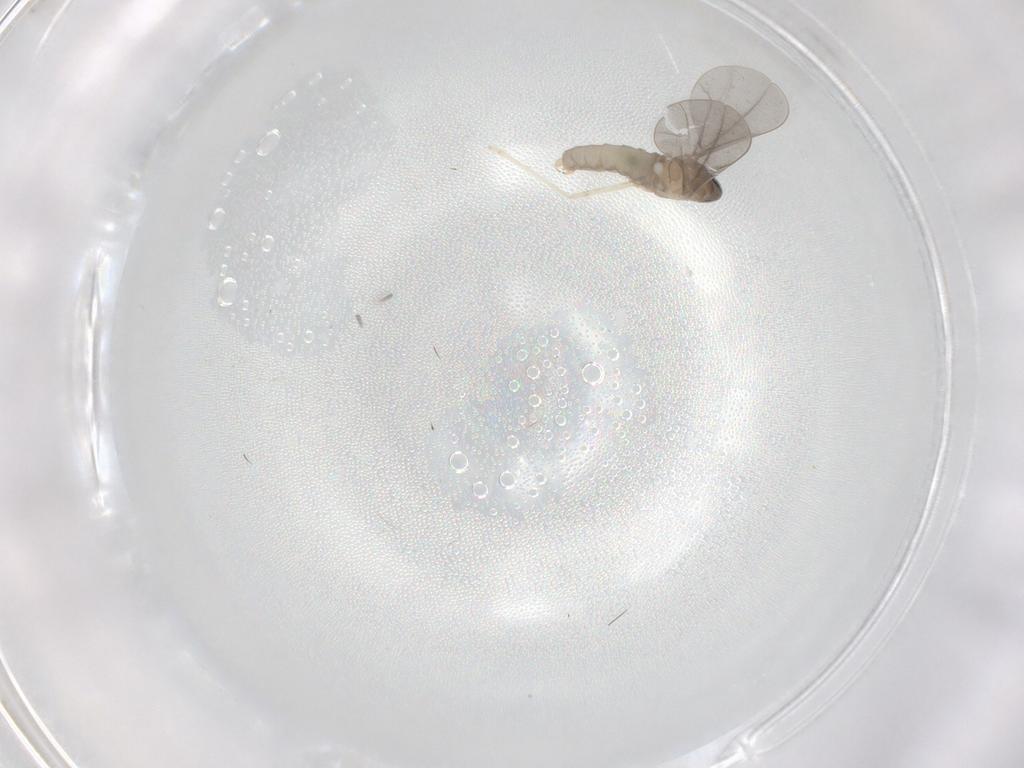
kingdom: Animalia
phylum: Arthropoda
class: Insecta
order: Diptera
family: Cecidomyiidae
